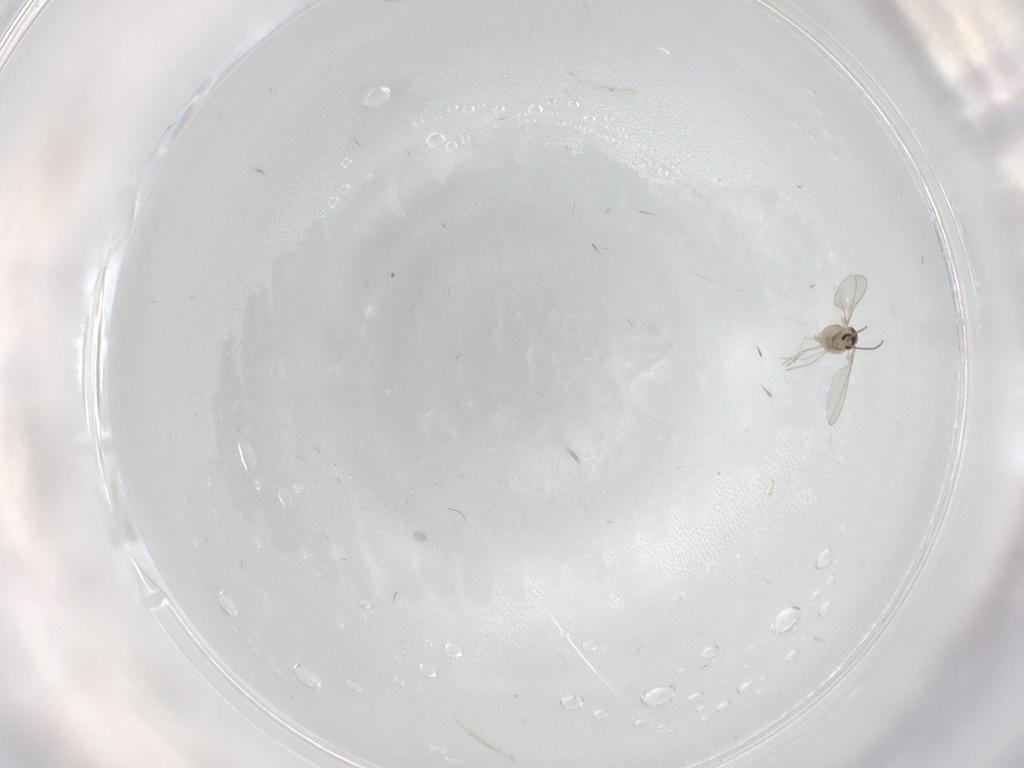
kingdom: Animalia
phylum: Arthropoda
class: Insecta
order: Diptera
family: Cecidomyiidae
